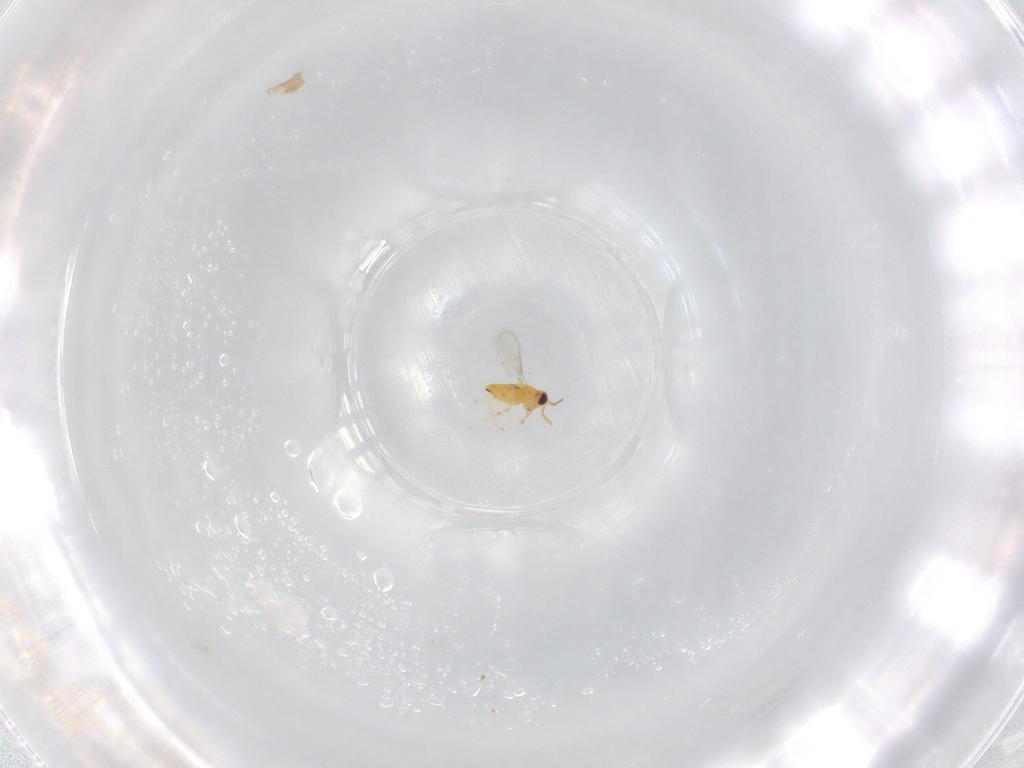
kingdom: Animalia
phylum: Arthropoda
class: Insecta
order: Hymenoptera
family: Aphelinidae
